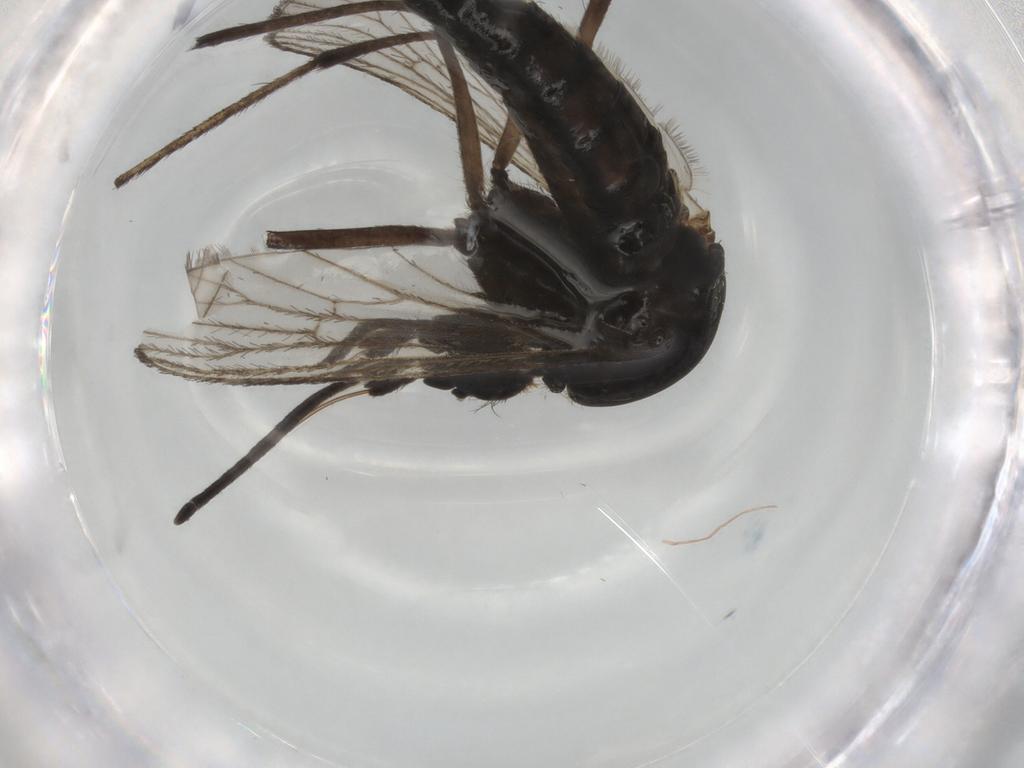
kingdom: Animalia
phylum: Arthropoda
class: Insecta
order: Diptera
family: Chironomidae
